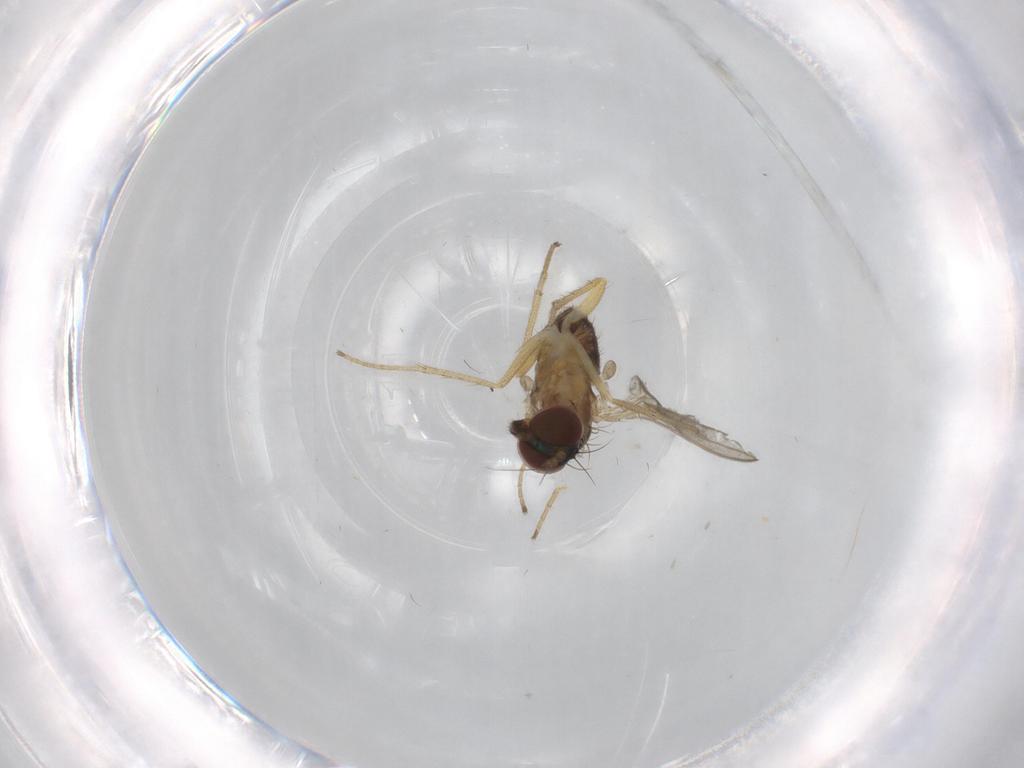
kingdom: Animalia
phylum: Arthropoda
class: Insecta
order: Diptera
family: Dolichopodidae
